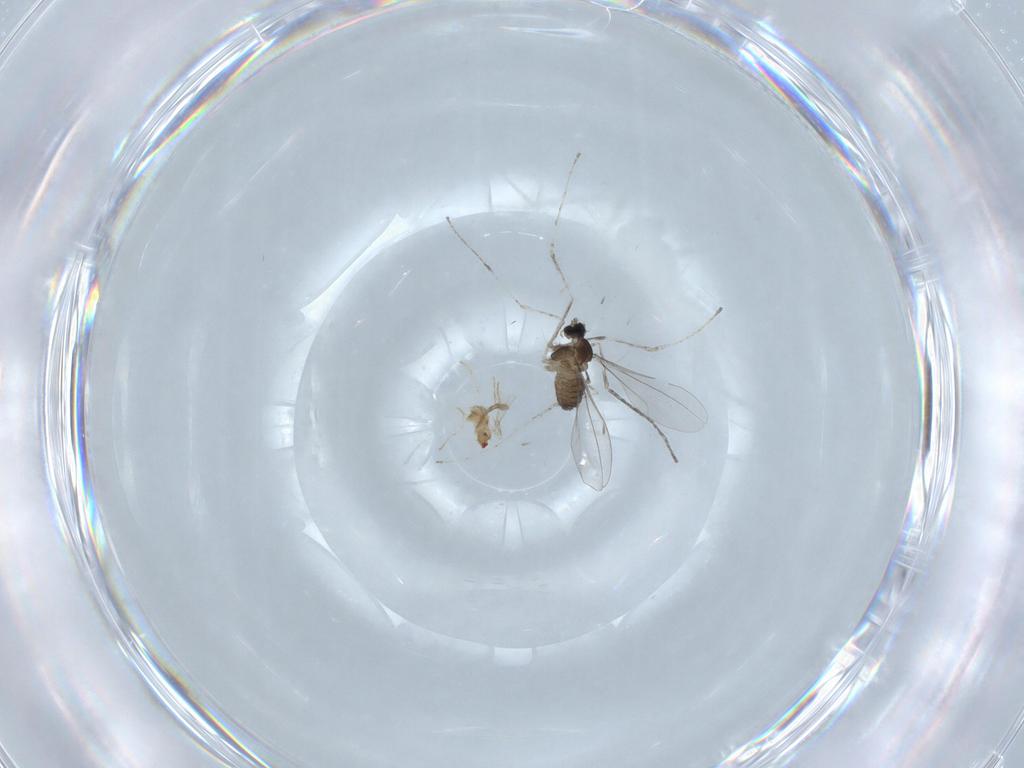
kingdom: Animalia
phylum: Arthropoda
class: Insecta
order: Diptera
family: Cecidomyiidae
